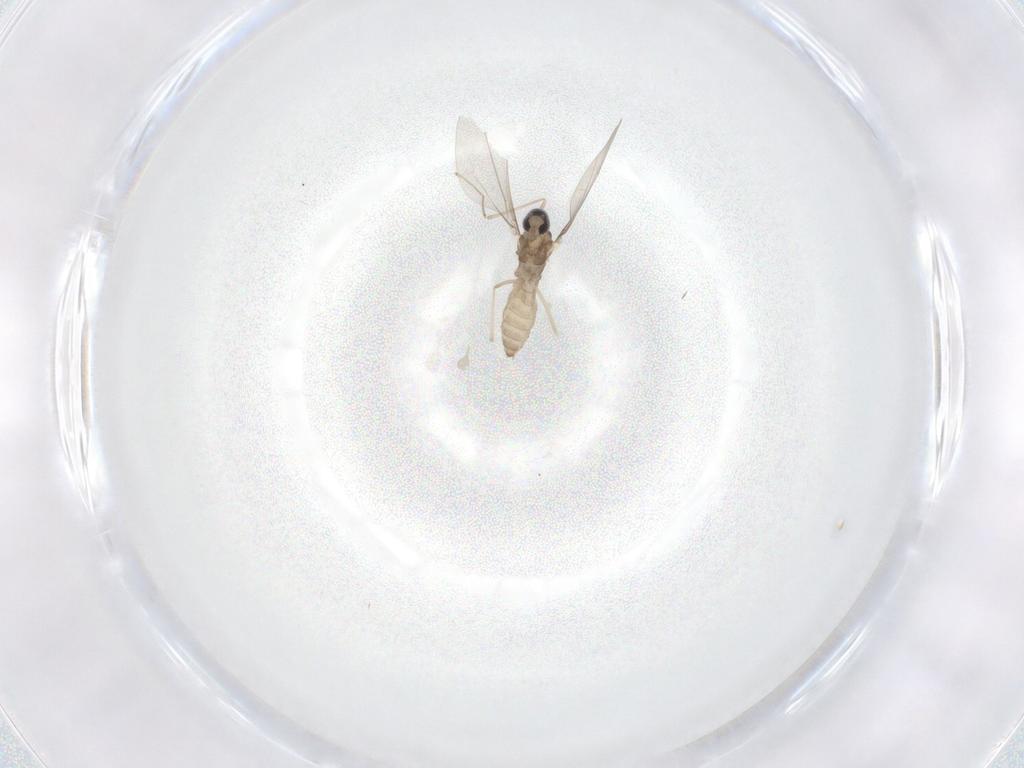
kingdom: Animalia
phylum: Arthropoda
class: Insecta
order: Diptera
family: Cecidomyiidae
